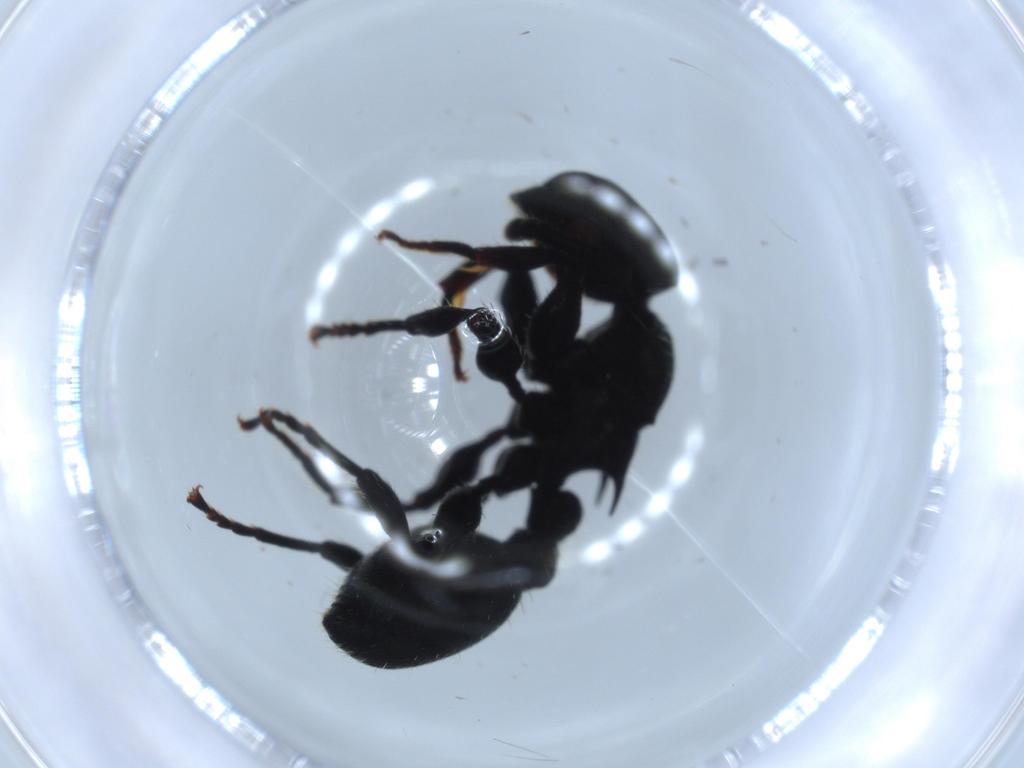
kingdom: Animalia
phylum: Arthropoda
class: Insecta
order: Hymenoptera
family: Formicidae
